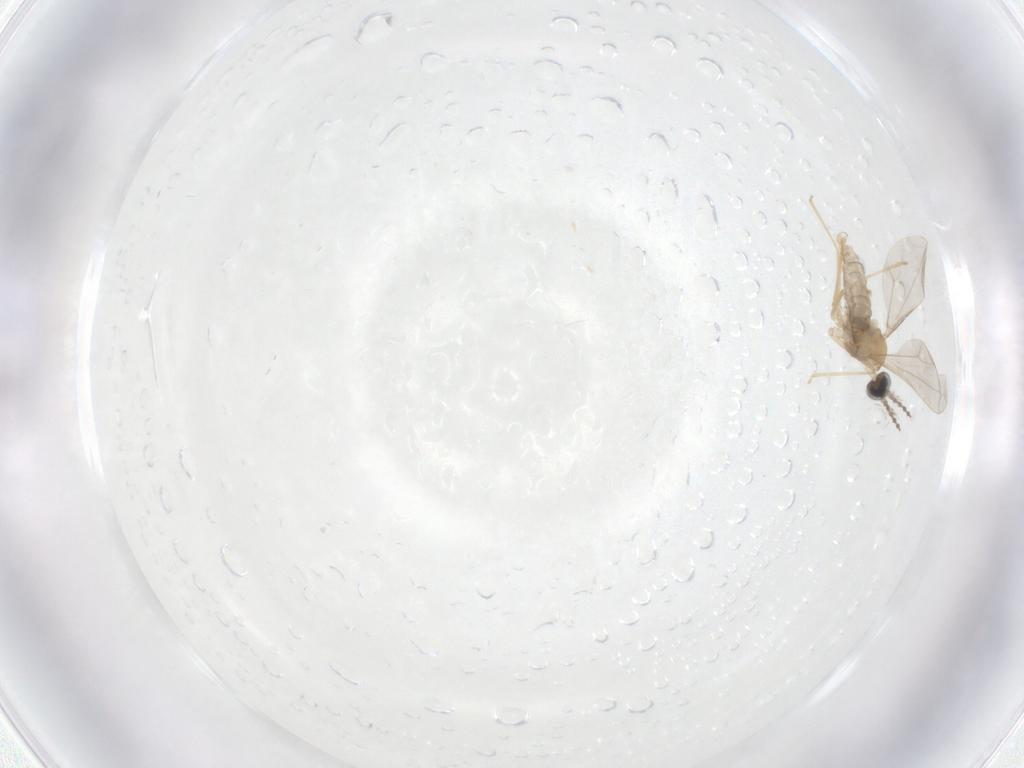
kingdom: Animalia
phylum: Arthropoda
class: Insecta
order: Diptera
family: Cecidomyiidae
